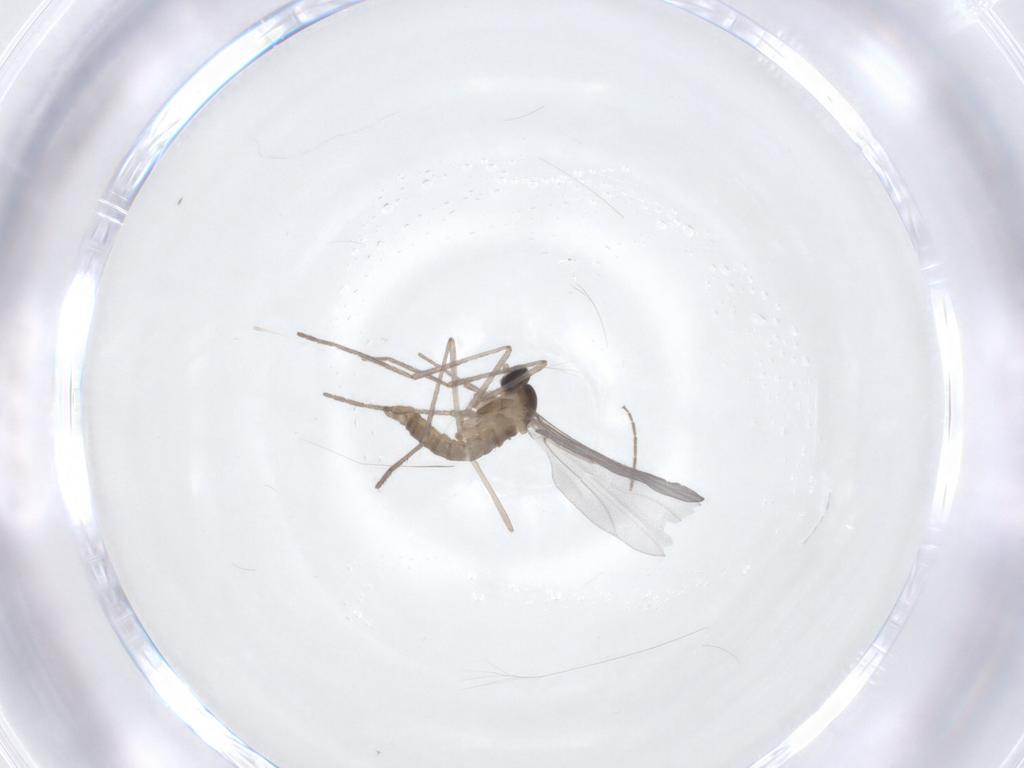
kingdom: Animalia
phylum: Arthropoda
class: Insecta
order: Diptera
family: Cecidomyiidae
